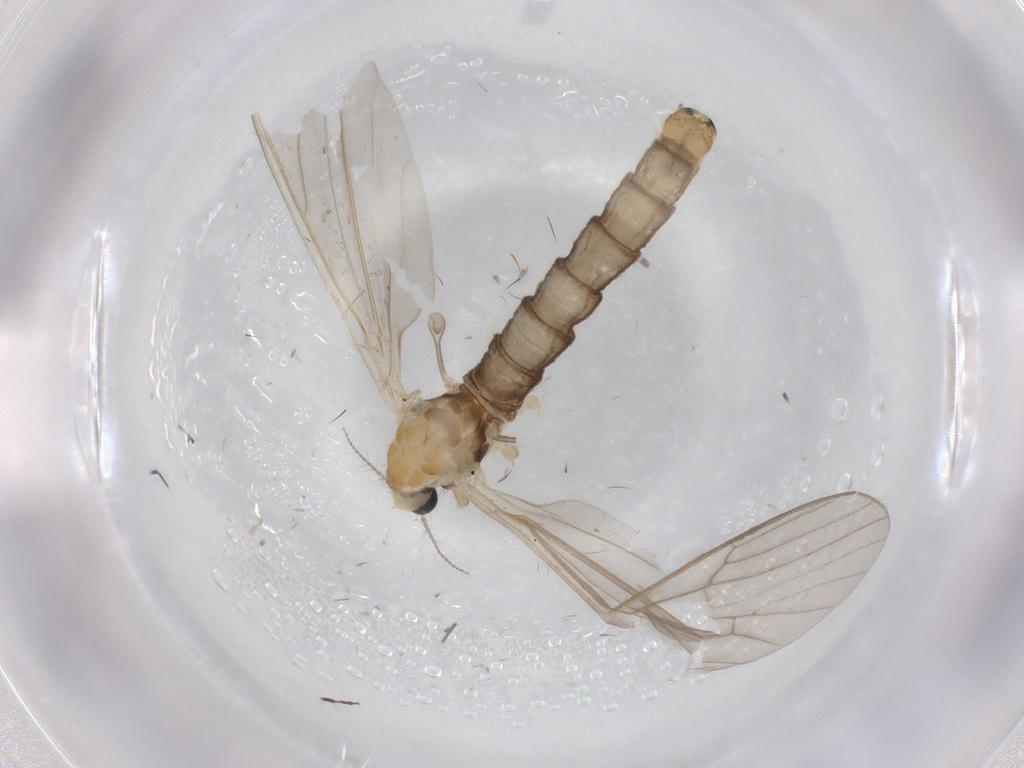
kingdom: Animalia
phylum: Arthropoda
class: Insecta
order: Diptera
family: Limoniidae
